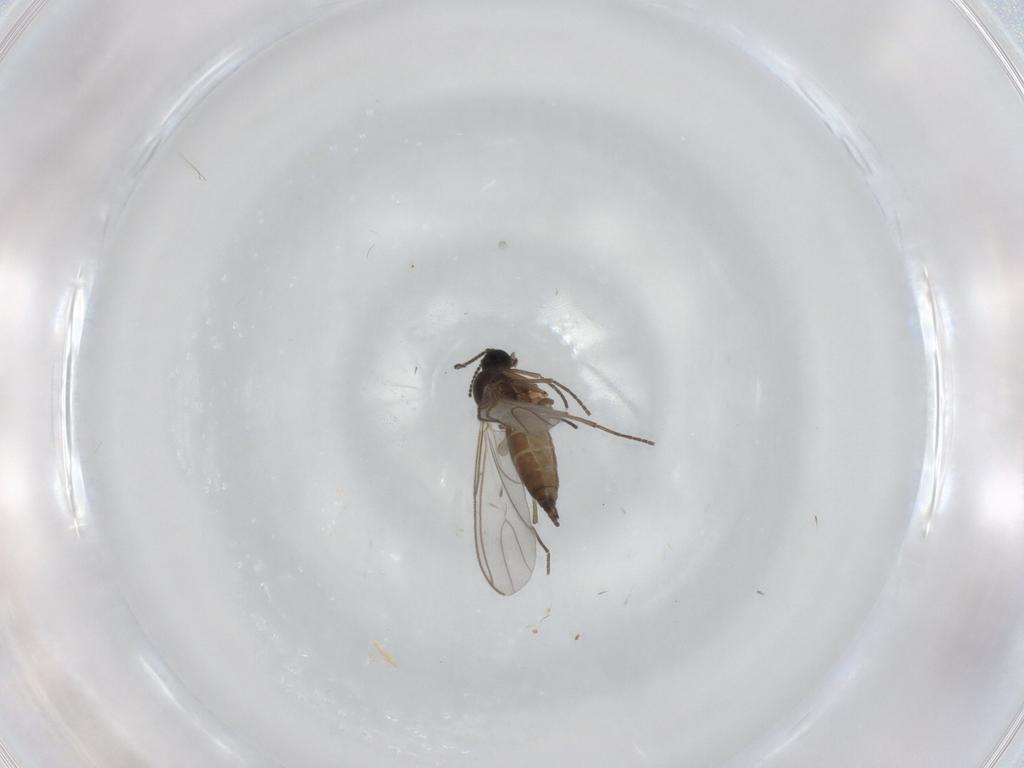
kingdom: Animalia
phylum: Arthropoda
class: Insecta
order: Diptera
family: Sciaridae
